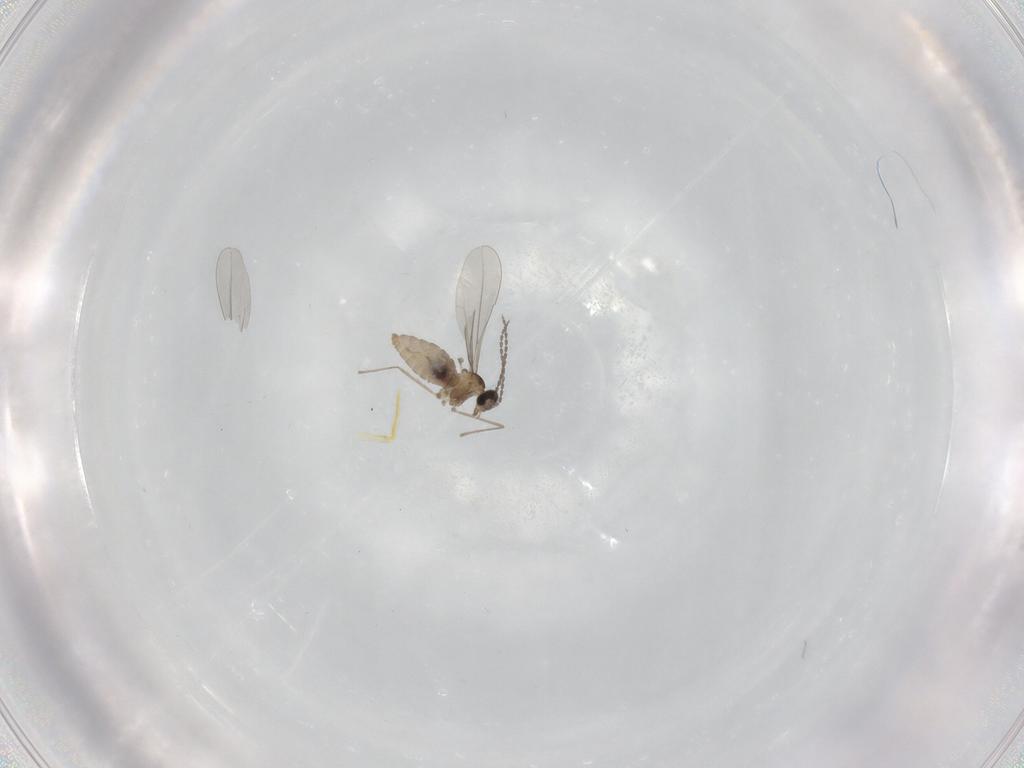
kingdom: Animalia
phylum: Arthropoda
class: Insecta
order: Diptera
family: Cecidomyiidae
